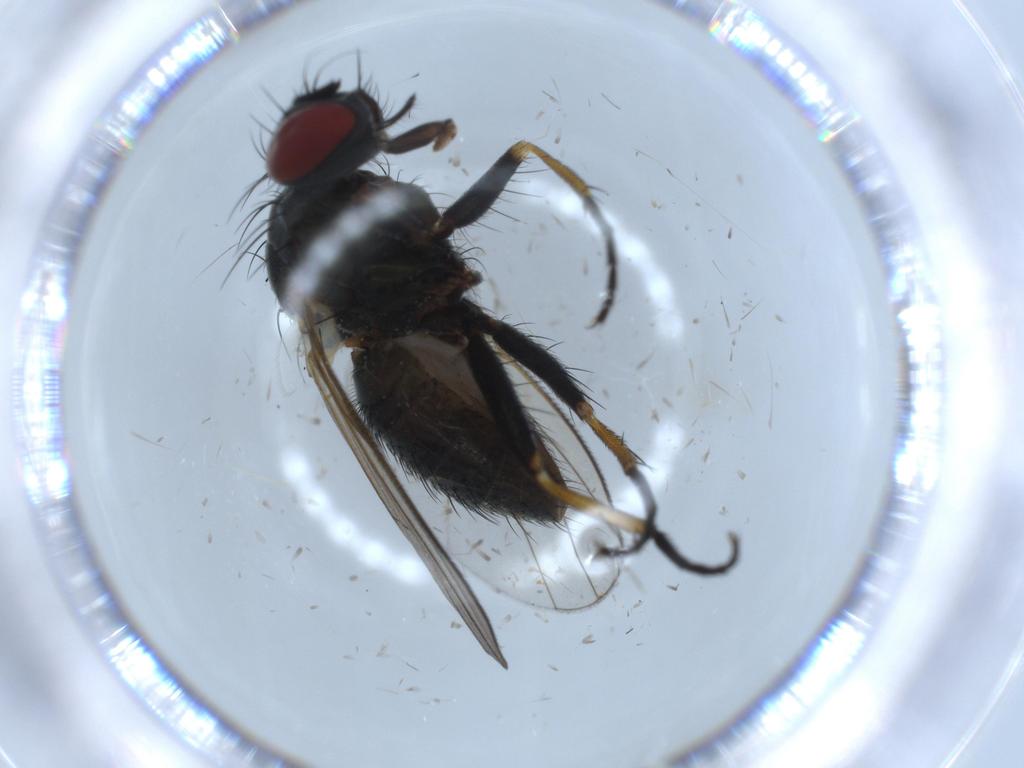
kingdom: Animalia
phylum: Arthropoda
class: Insecta
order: Diptera
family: Sciaridae
